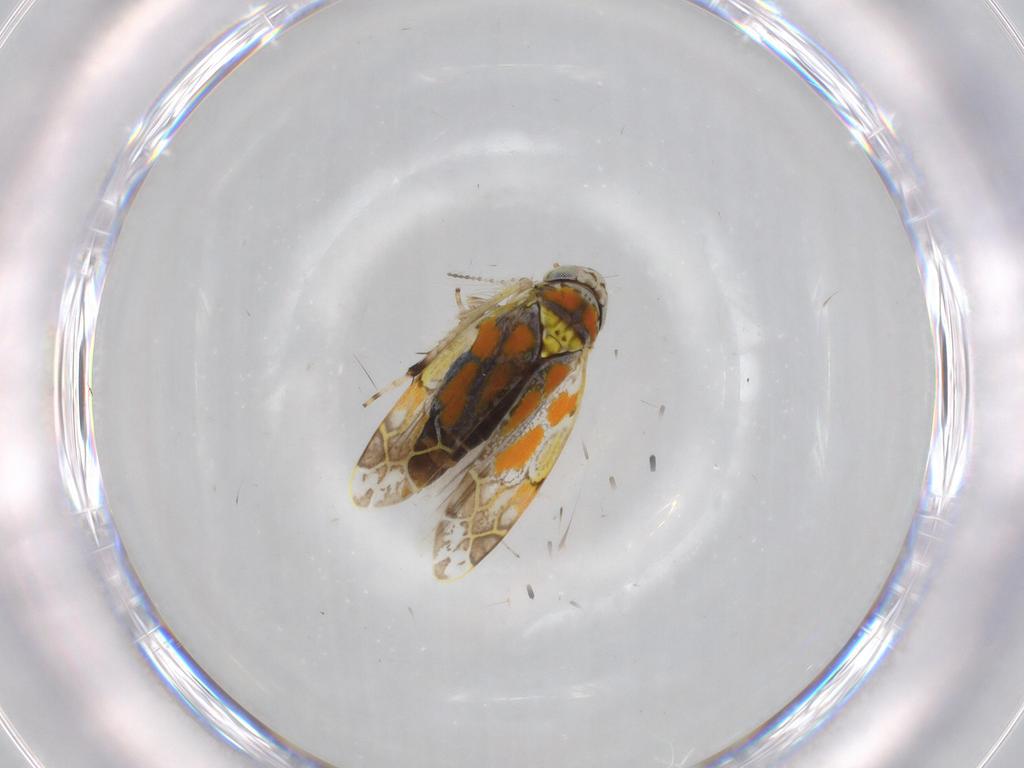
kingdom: Animalia
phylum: Arthropoda
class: Insecta
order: Hemiptera
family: Cicadellidae
